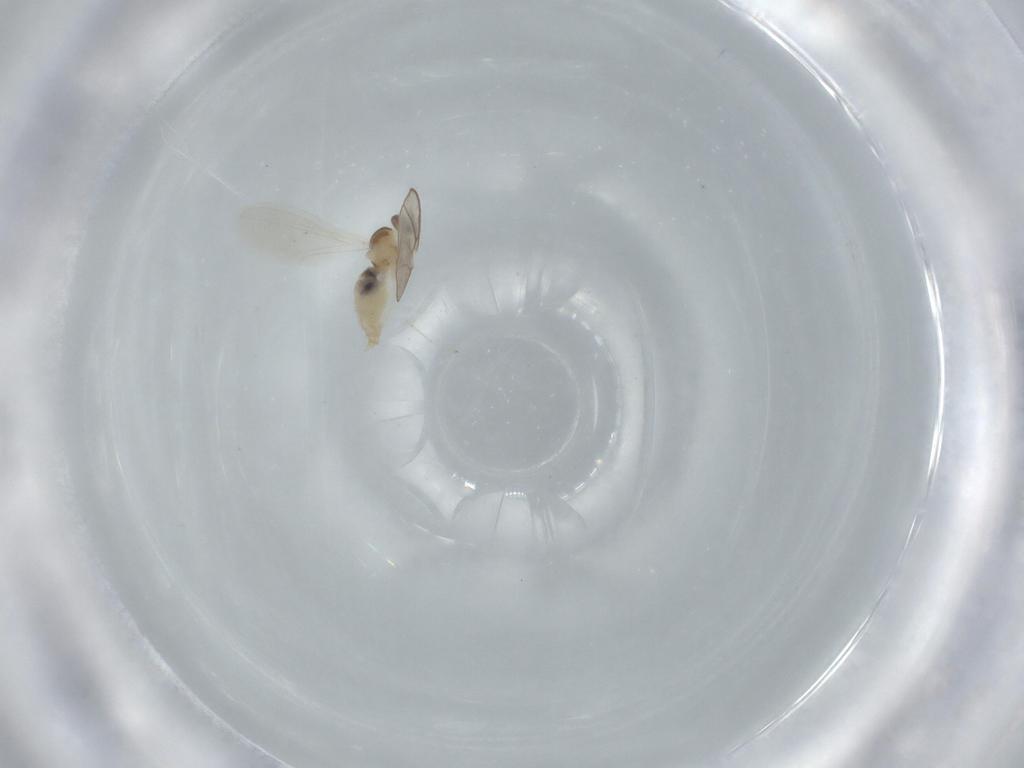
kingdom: Animalia
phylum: Arthropoda
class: Insecta
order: Diptera
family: Cecidomyiidae
